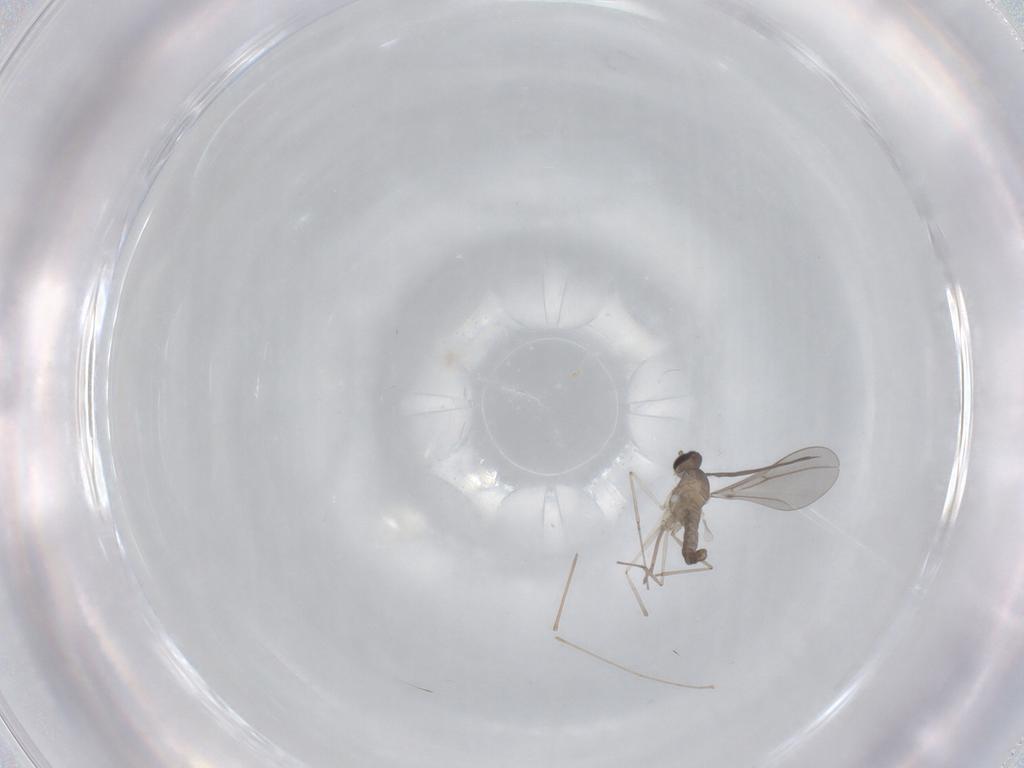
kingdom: Animalia
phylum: Arthropoda
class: Insecta
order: Diptera
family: Cecidomyiidae
